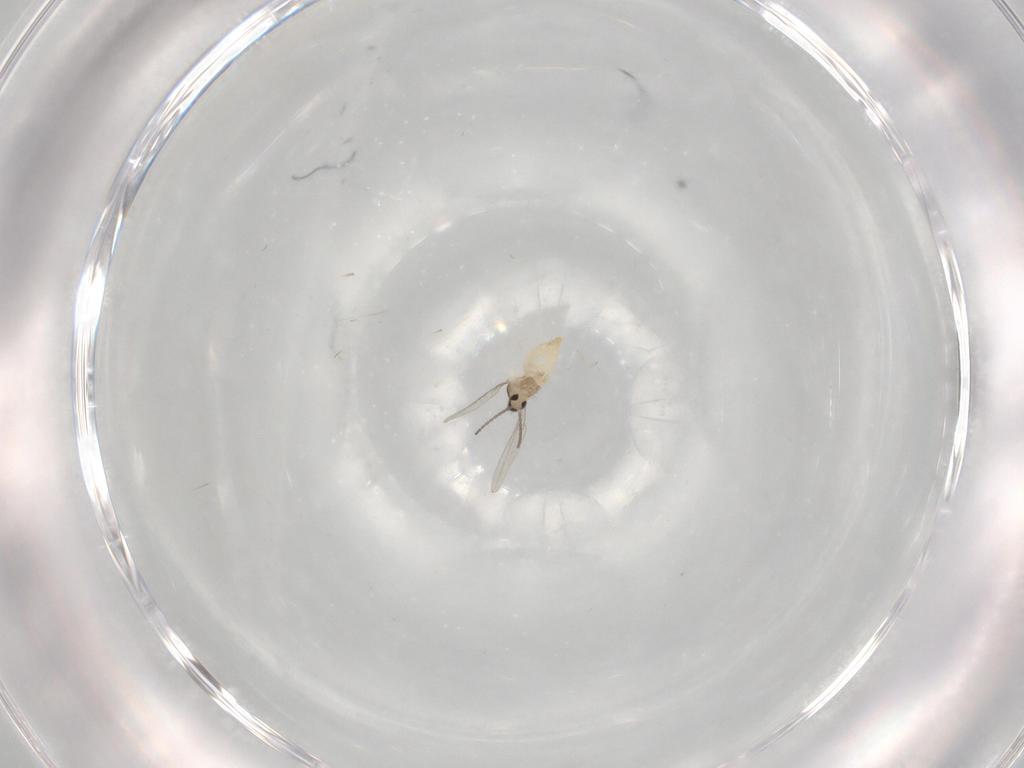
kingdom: Animalia
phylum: Arthropoda
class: Insecta
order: Diptera
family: Cecidomyiidae
